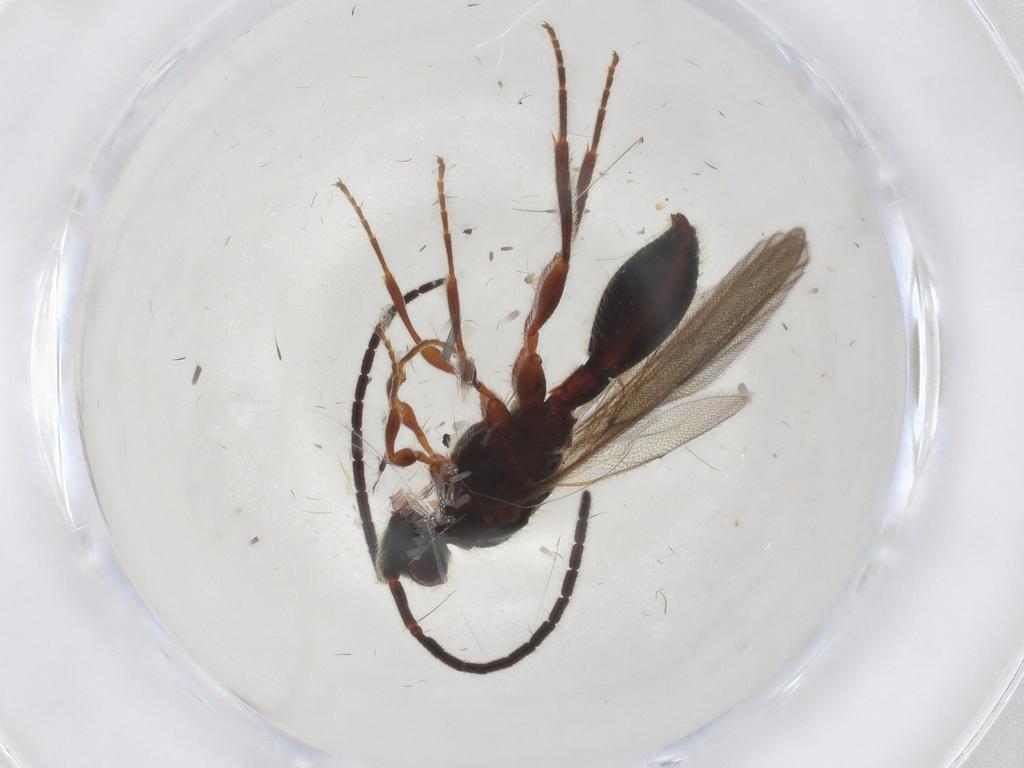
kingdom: Animalia
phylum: Arthropoda
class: Insecta
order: Hymenoptera
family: Diapriidae
